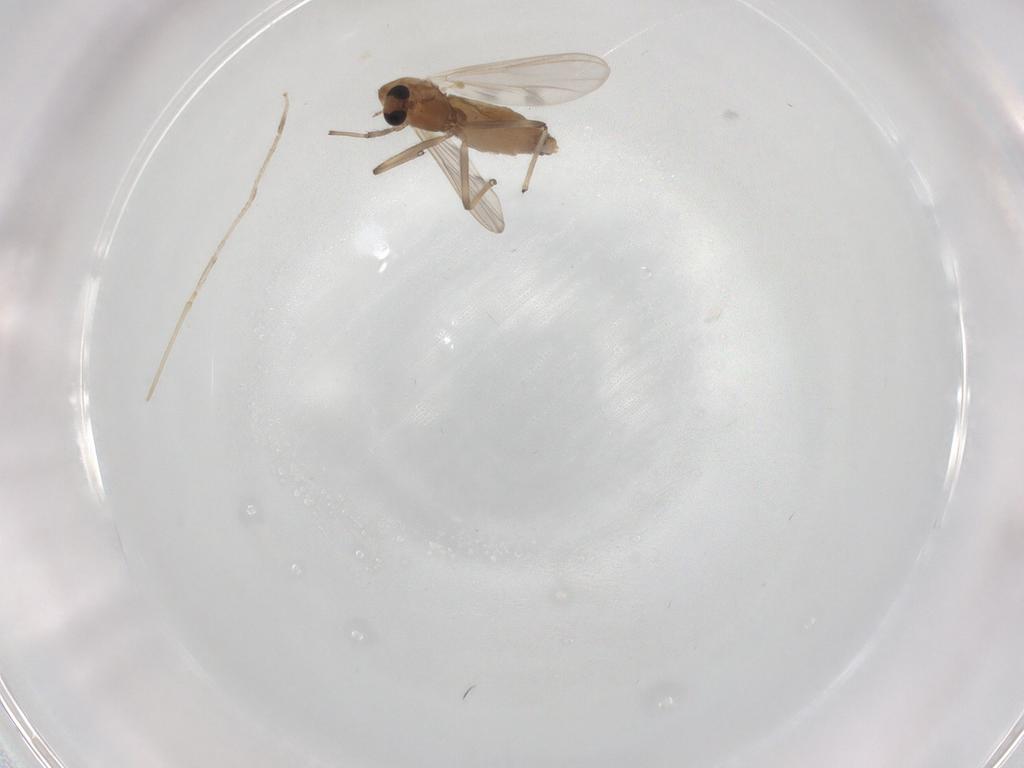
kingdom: Animalia
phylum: Arthropoda
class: Insecta
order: Diptera
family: Chironomidae
